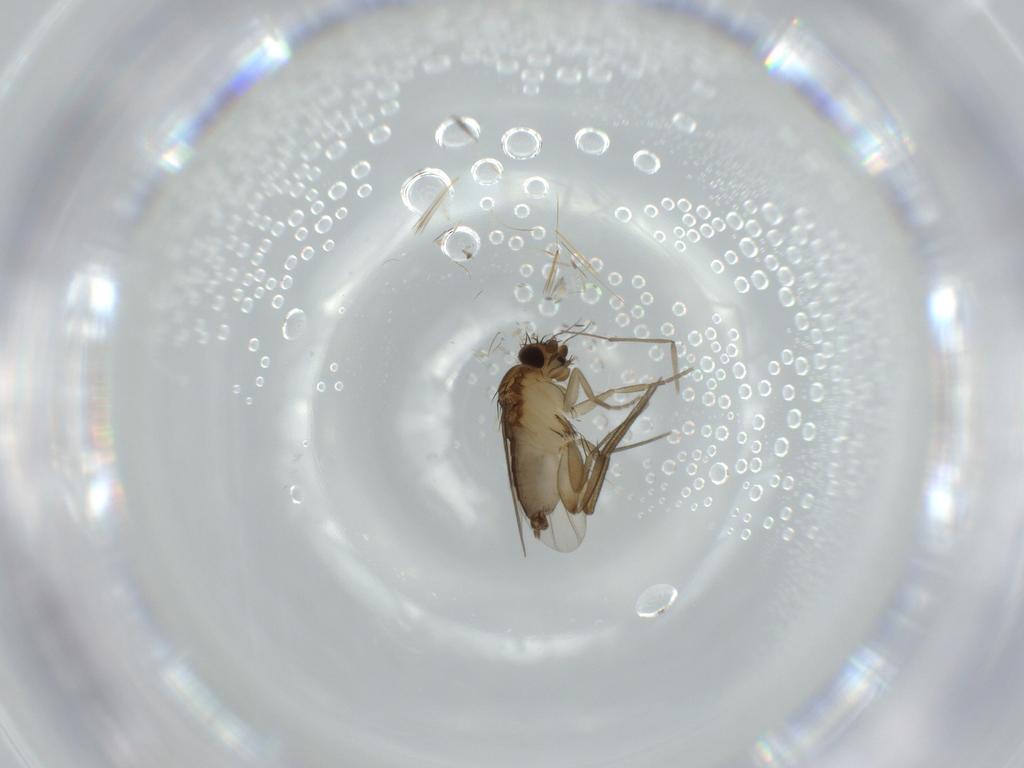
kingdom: Animalia
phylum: Arthropoda
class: Insecta
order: Diptera
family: Chironomidae
